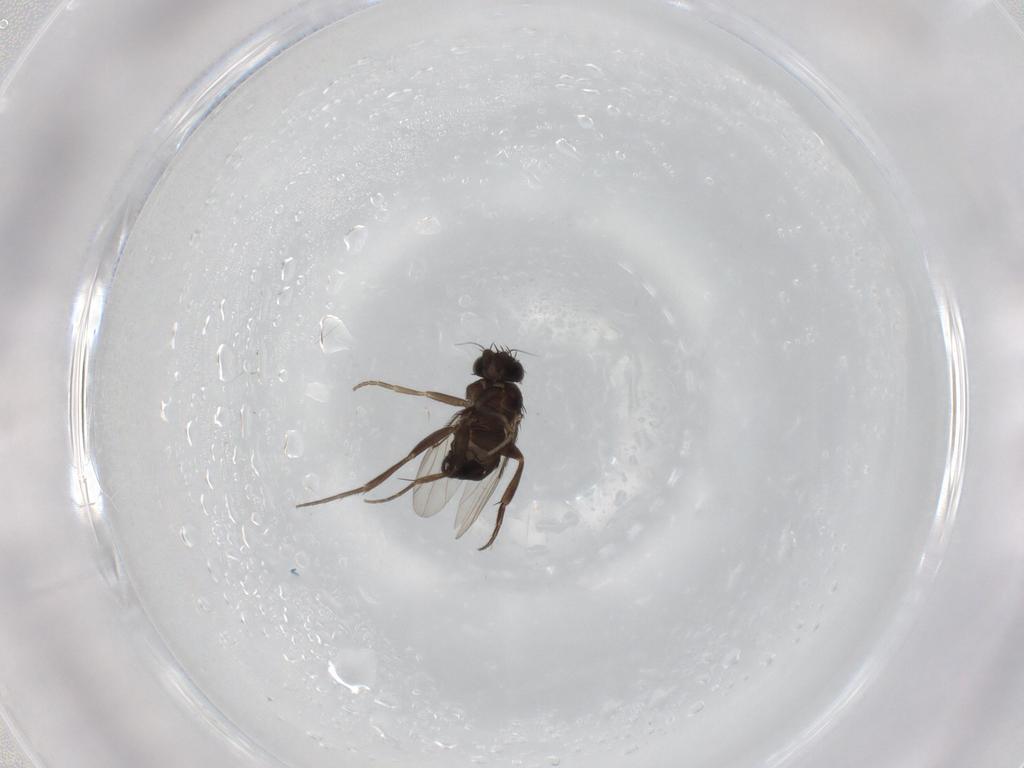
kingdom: Animalia
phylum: Arthropoda
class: Insecta
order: Diptera
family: Phoridae
